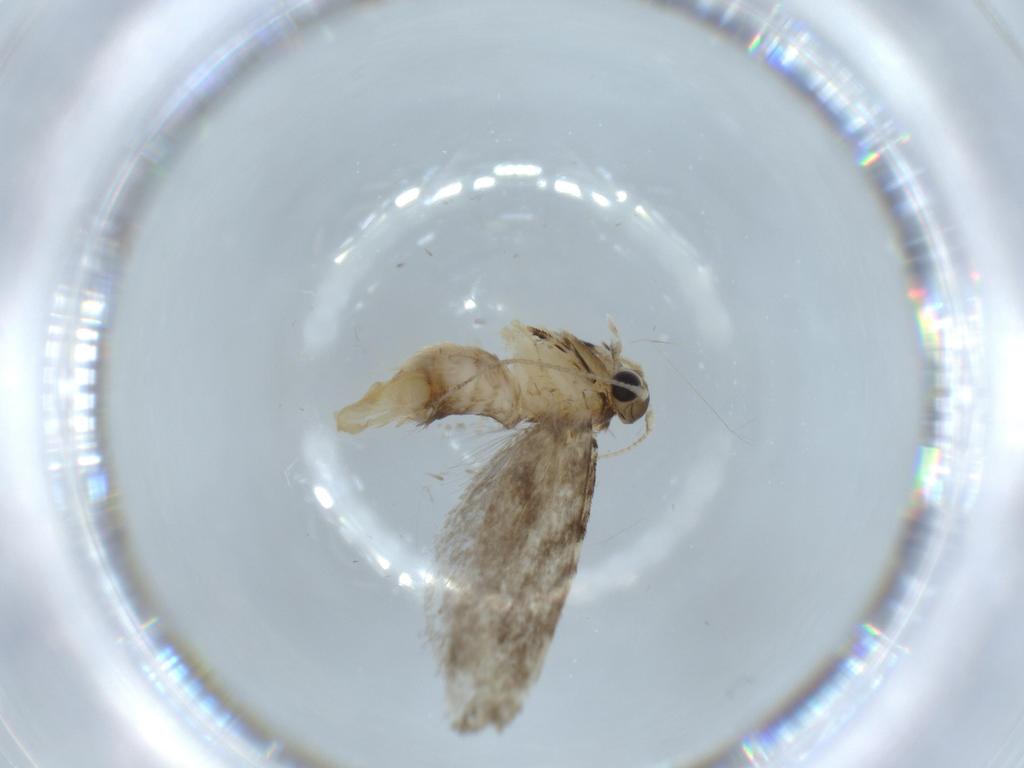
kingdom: Animalia
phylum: Arthropoda
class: Insecta
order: Lepidoptera
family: Tineidae
